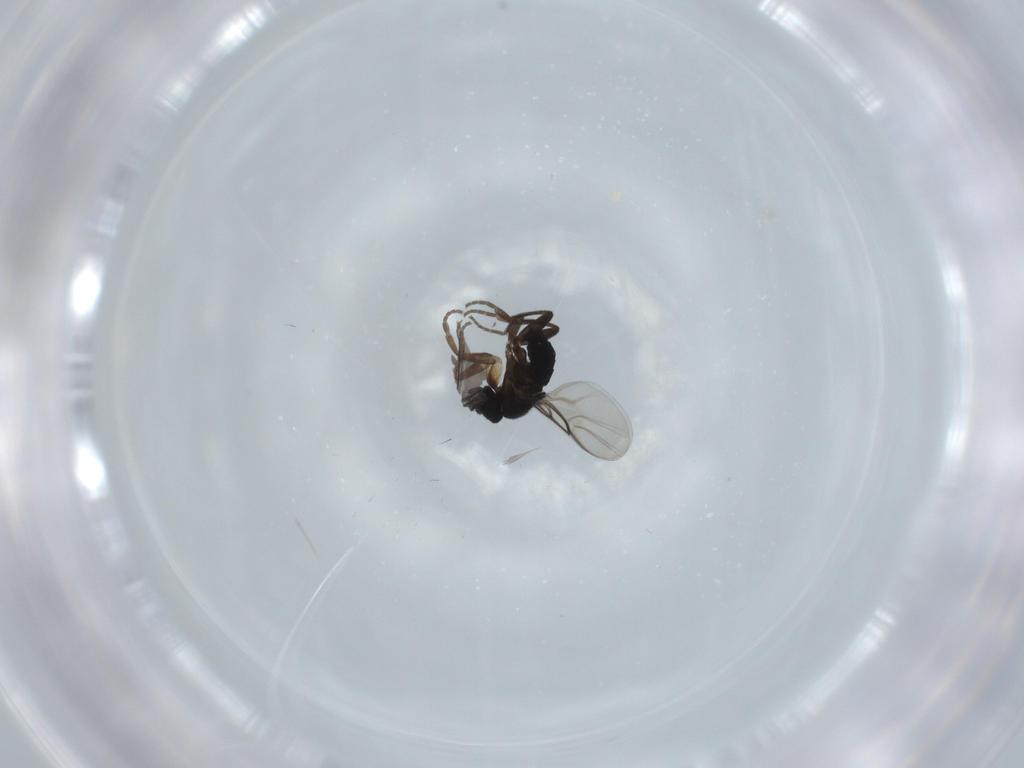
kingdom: Animalia
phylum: Arthropoda
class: Insecta
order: Diptera
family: Phoridae
